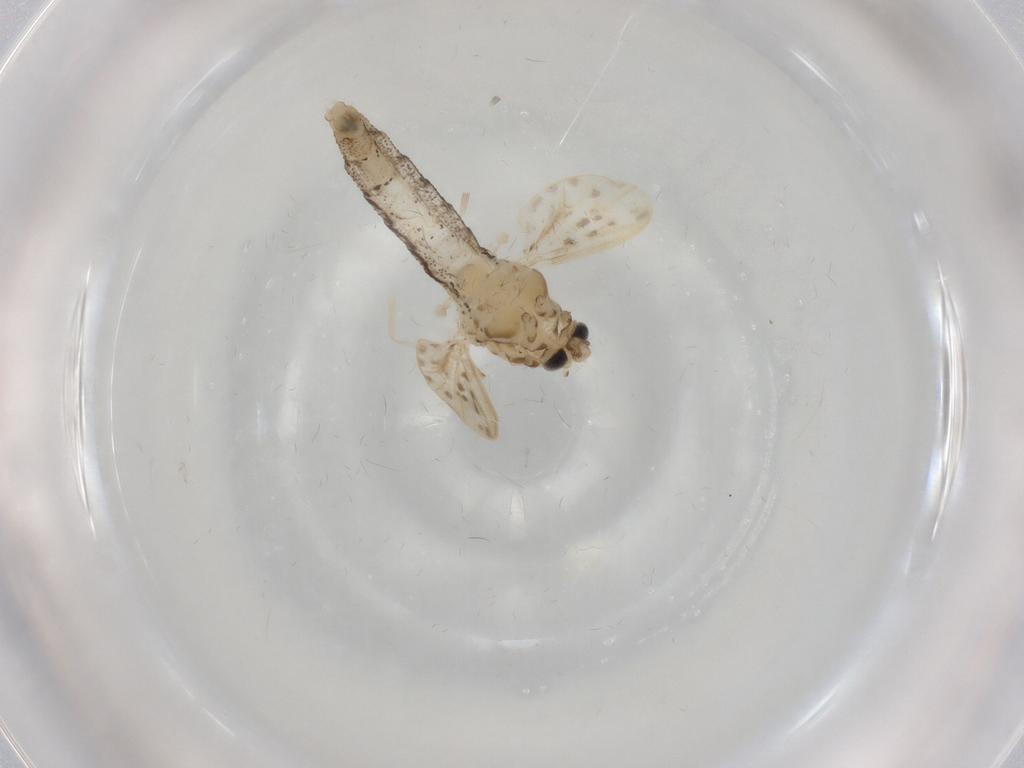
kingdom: Animalia
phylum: Arthropoda
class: Insecta
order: Diptera
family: Chaoboridae
